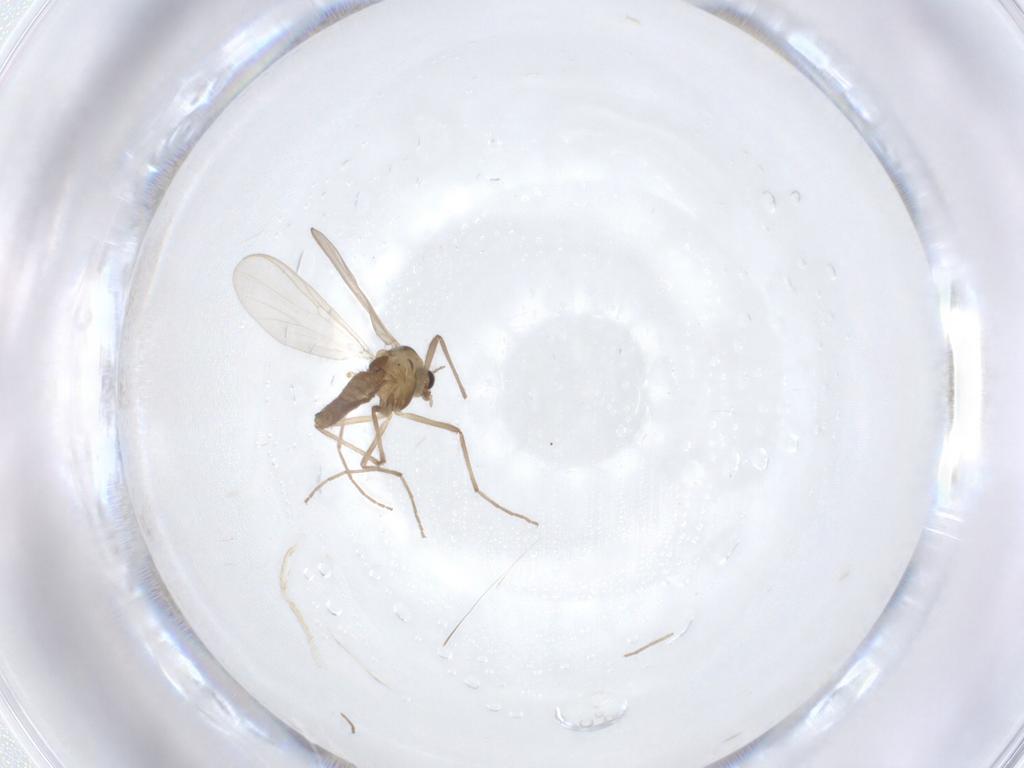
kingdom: Animalia
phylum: Arthropoda
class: Insecta
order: Diptera
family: Chironomidae
